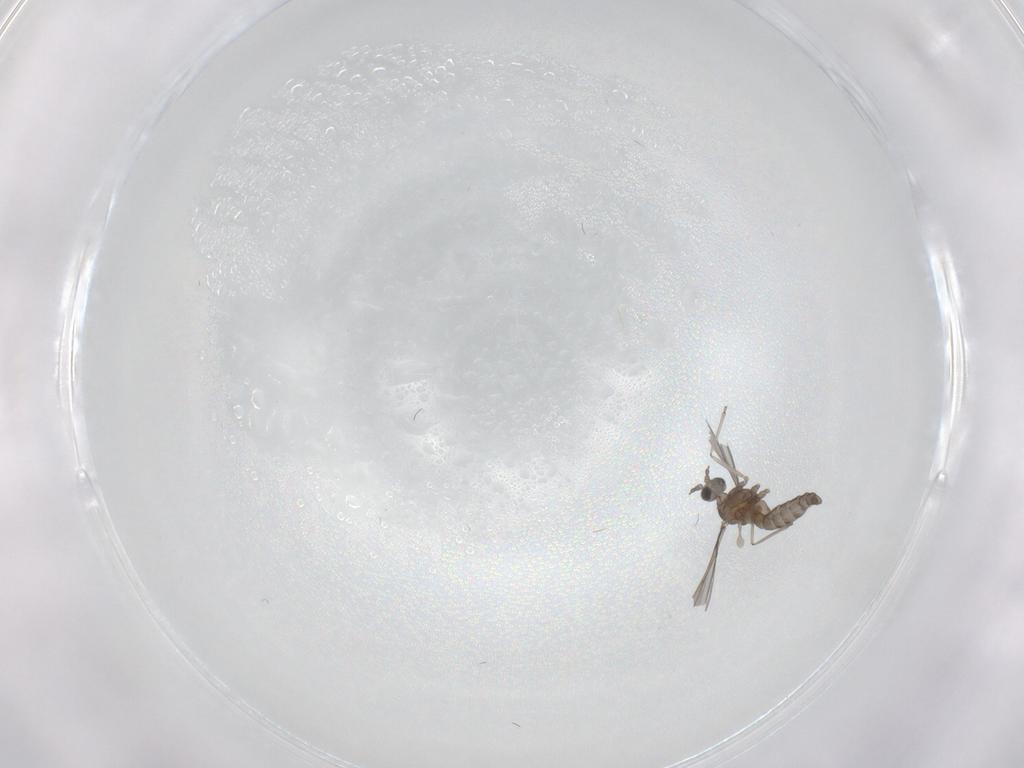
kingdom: Animalia
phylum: Arthropoda
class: Insecta
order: Diptera
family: Cecidomyiidae
